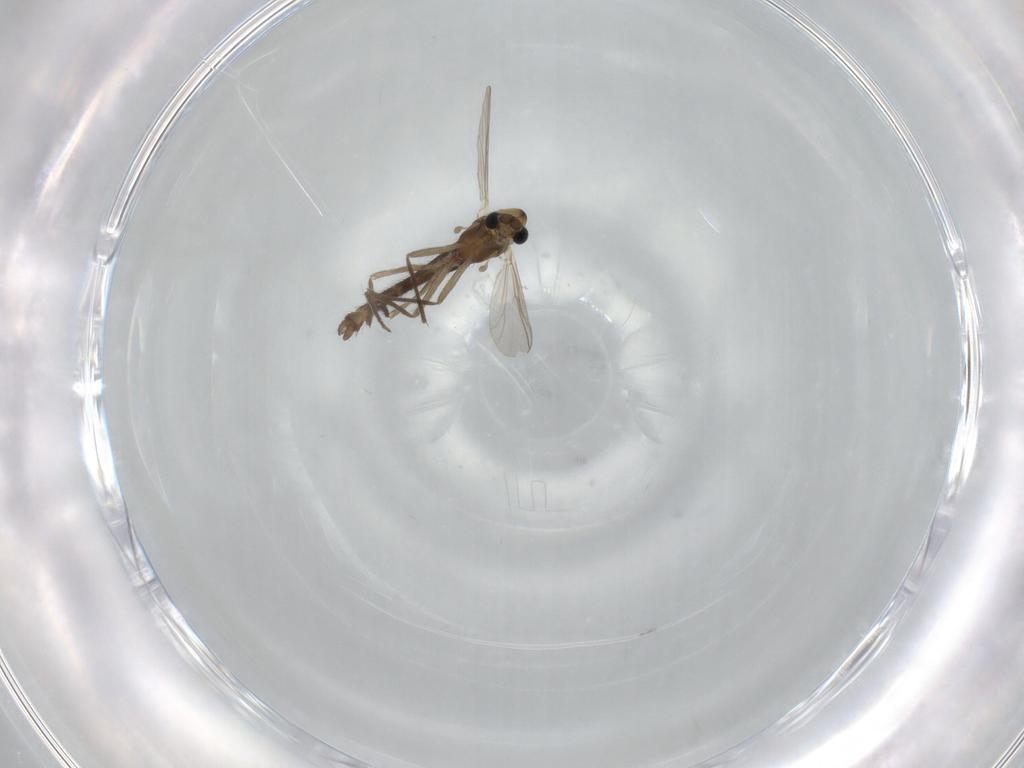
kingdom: Animalia
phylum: Arthropoda
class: Insecta
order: Diptera
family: Chironomidae
